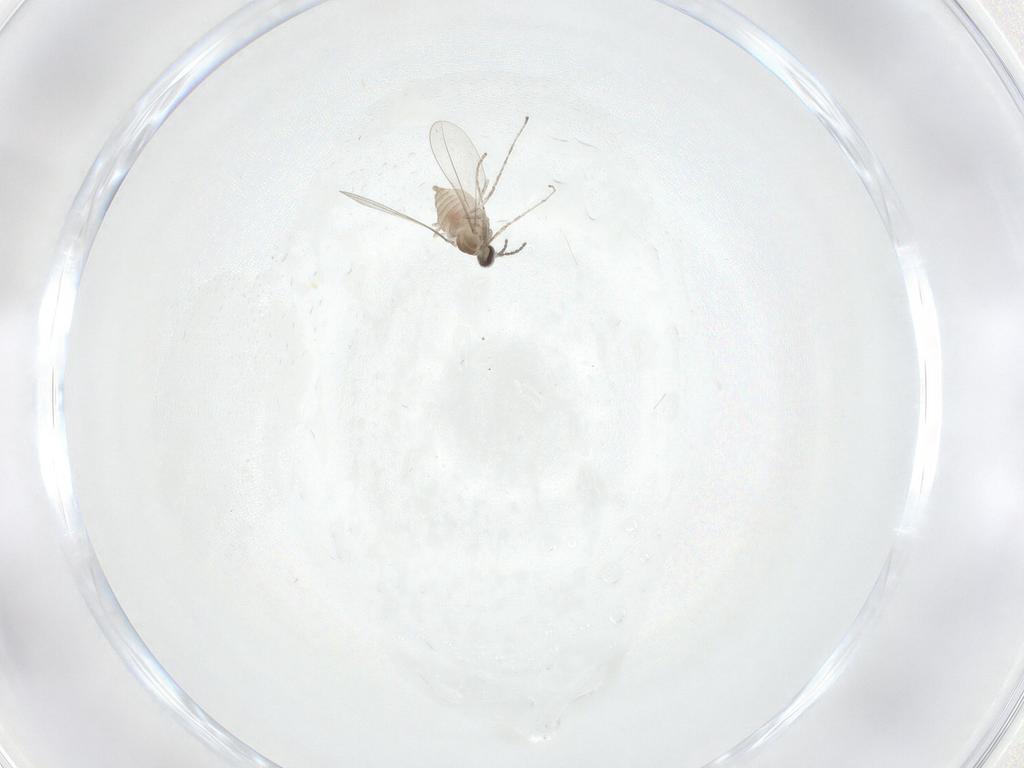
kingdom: Animalia
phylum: Arthropoda
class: Insecta
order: Diptera
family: Cecidomyiidae
